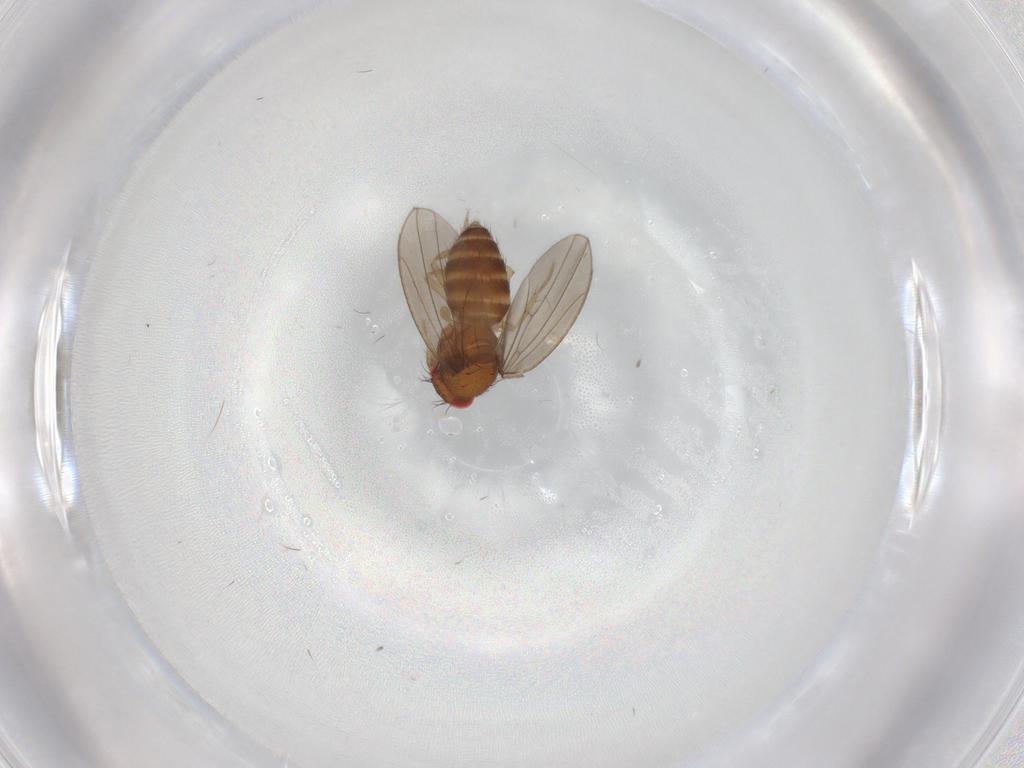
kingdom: Animalia
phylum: Arthropoda
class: Insecta
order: Diptera
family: Drosophilidae
